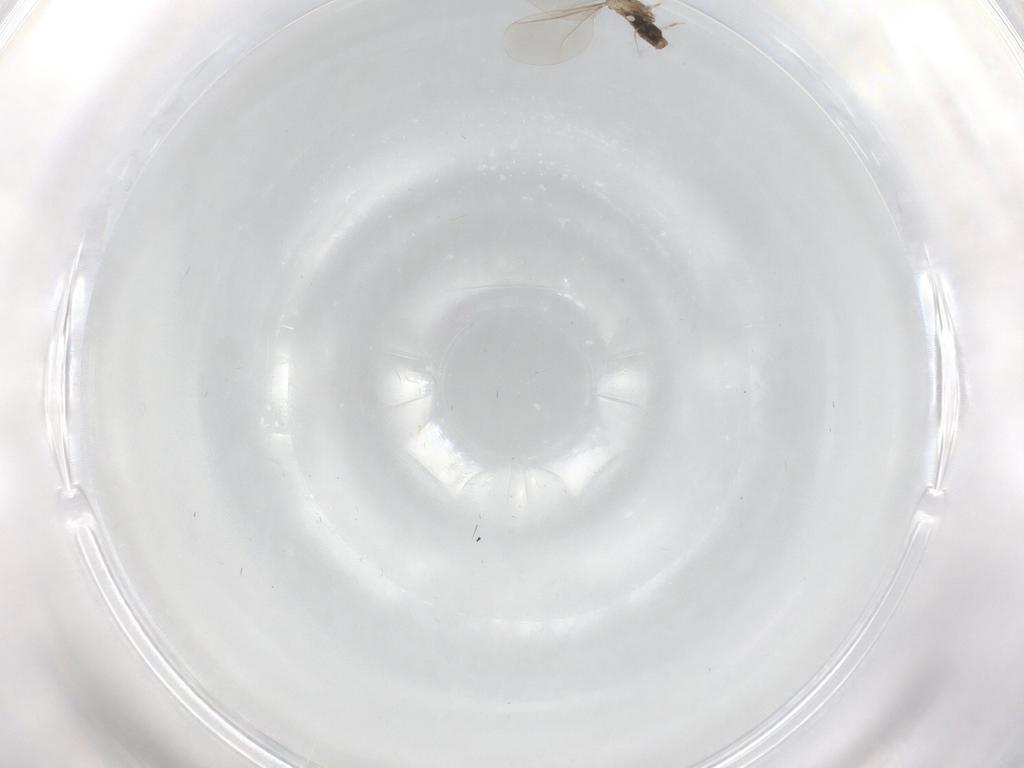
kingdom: Animalia
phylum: Arthropoda
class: Insecta
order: Diptera
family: Cecidomyiidae
